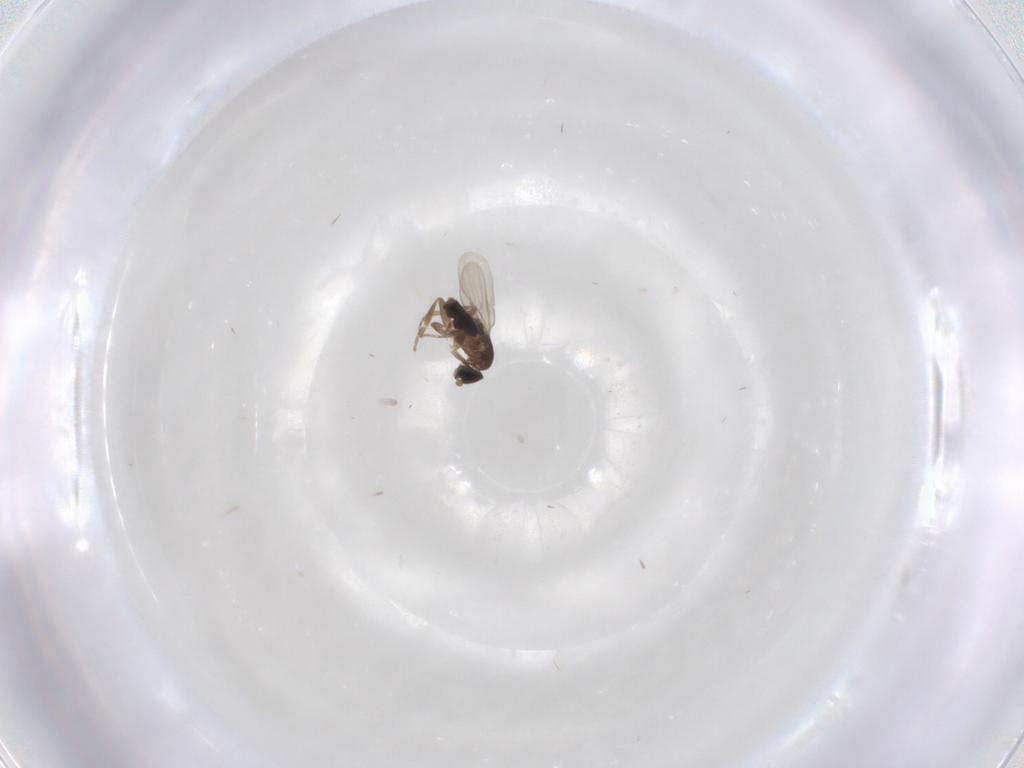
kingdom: Animalia
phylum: Arthropoda
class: Insecta
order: Diptera
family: Phoridae
